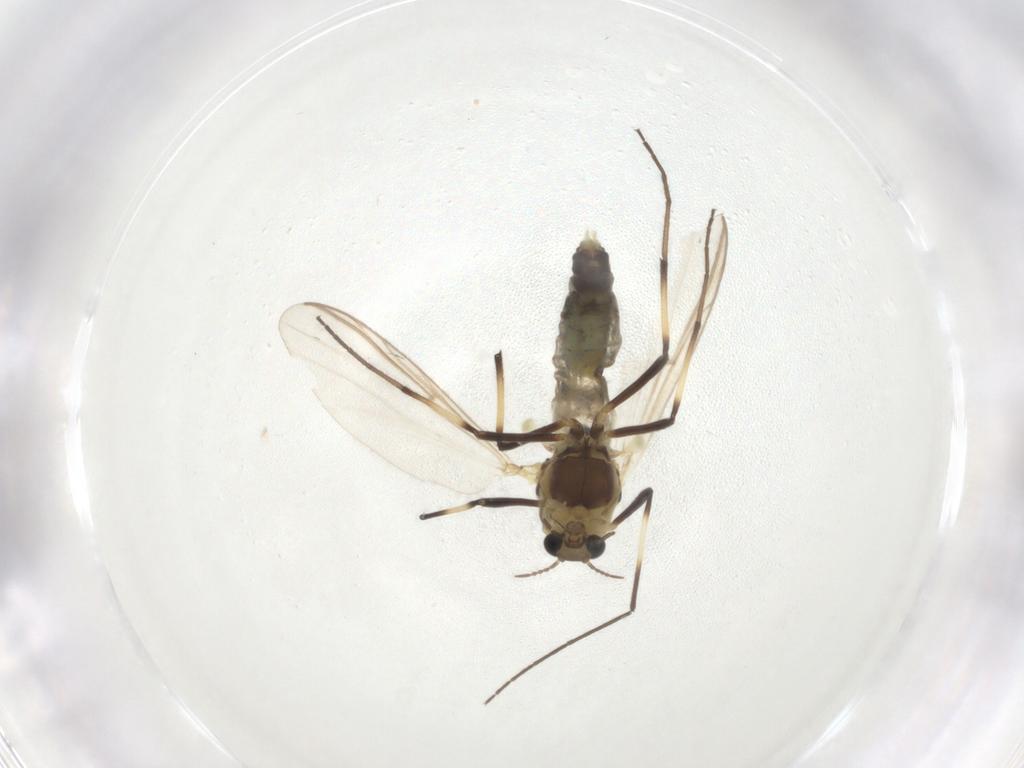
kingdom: Animalia
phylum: Arthropoda
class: Insecta
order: Diptera
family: Chironomidae
